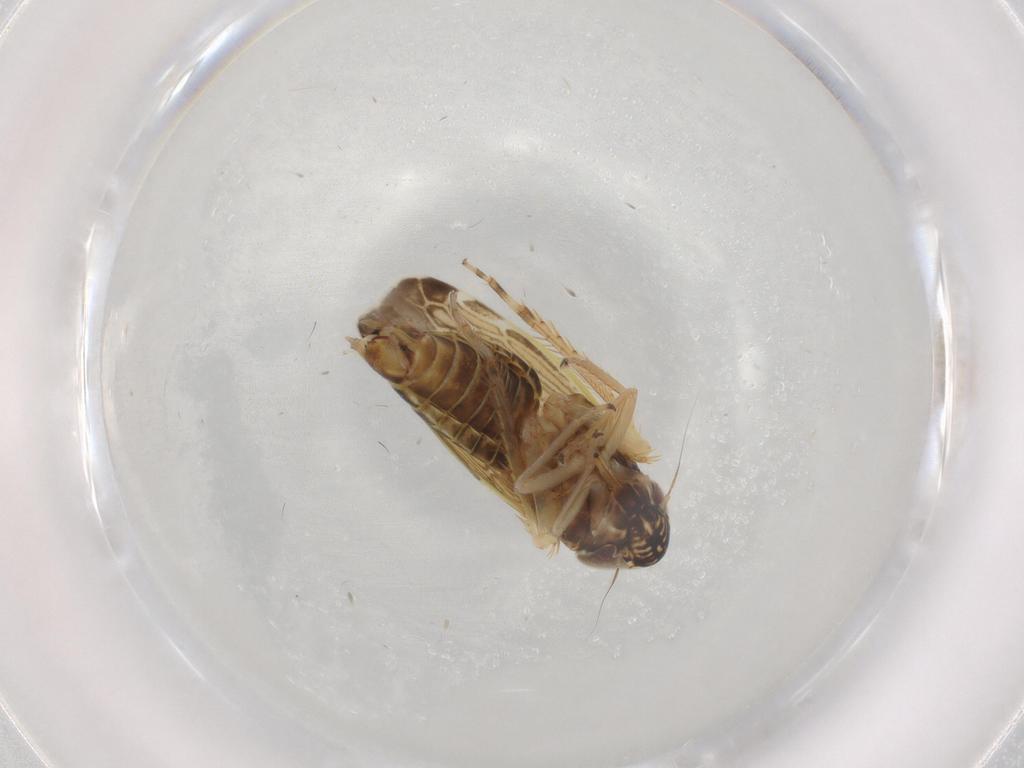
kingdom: Animalia
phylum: Arthropoda
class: Insecta
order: Hemiptera
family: Cicadellidae
